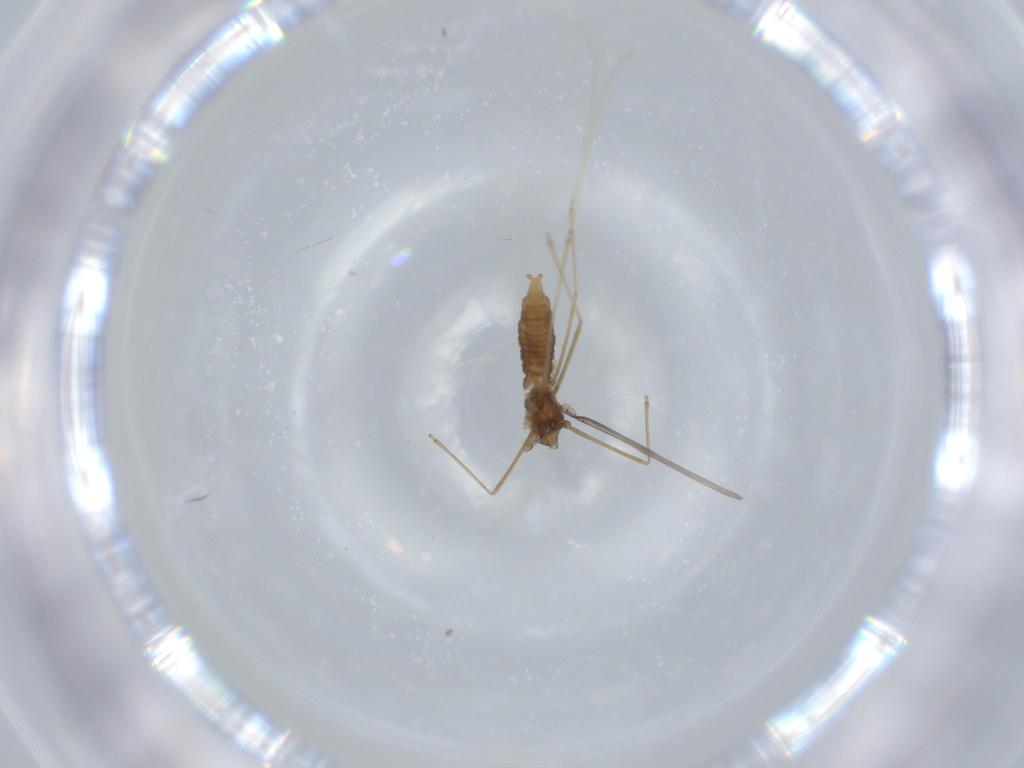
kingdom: Animalia
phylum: Arthropoda
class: Insecta
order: Diptera
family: Cecidomyiidae
